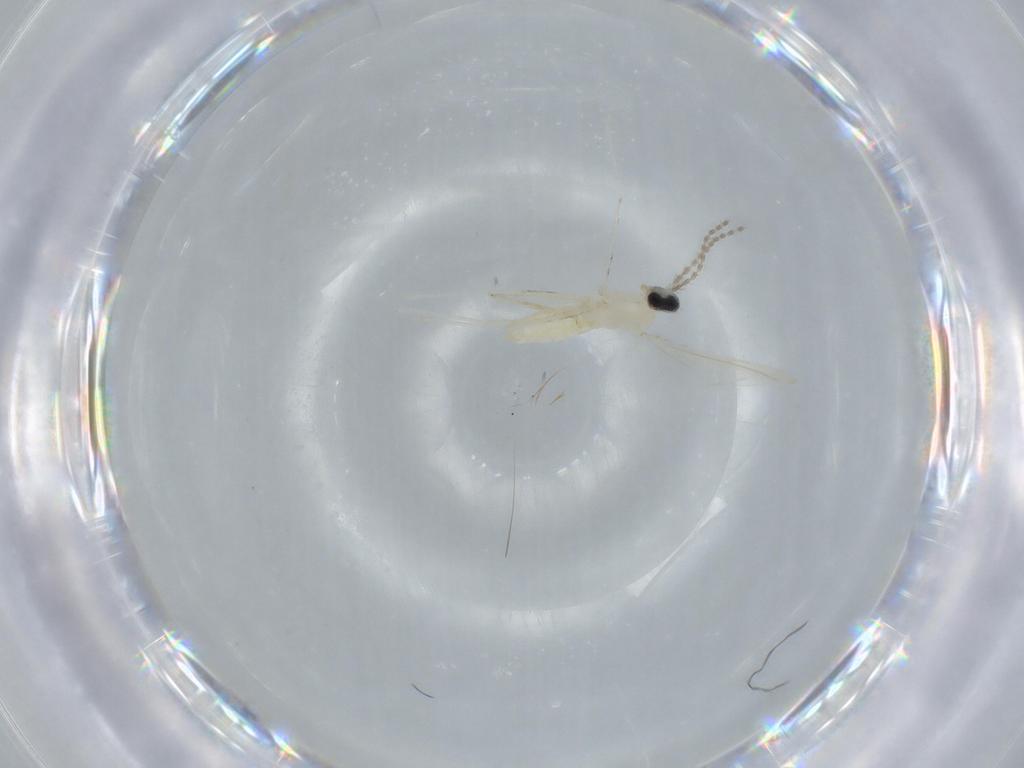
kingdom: Animalia
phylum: Arthropoda
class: Insecta
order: Diptera
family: Cecidomyiidae
